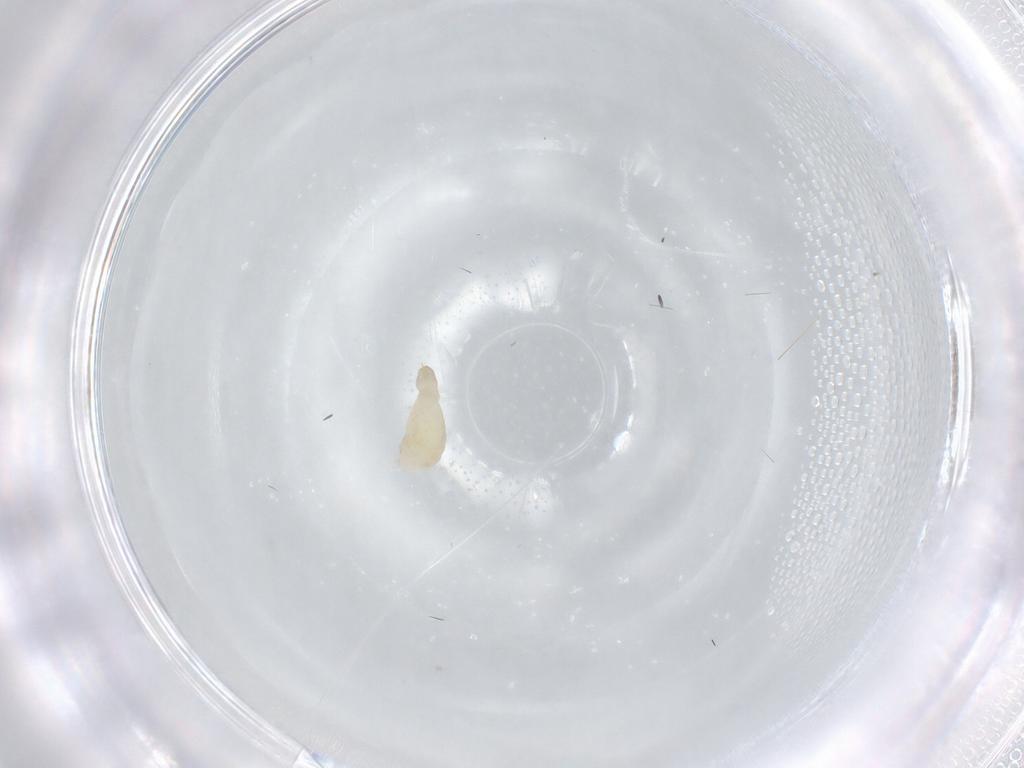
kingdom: Animalia
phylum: Arthropoda
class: Insecta
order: Diptera
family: Cecidomyiidae
